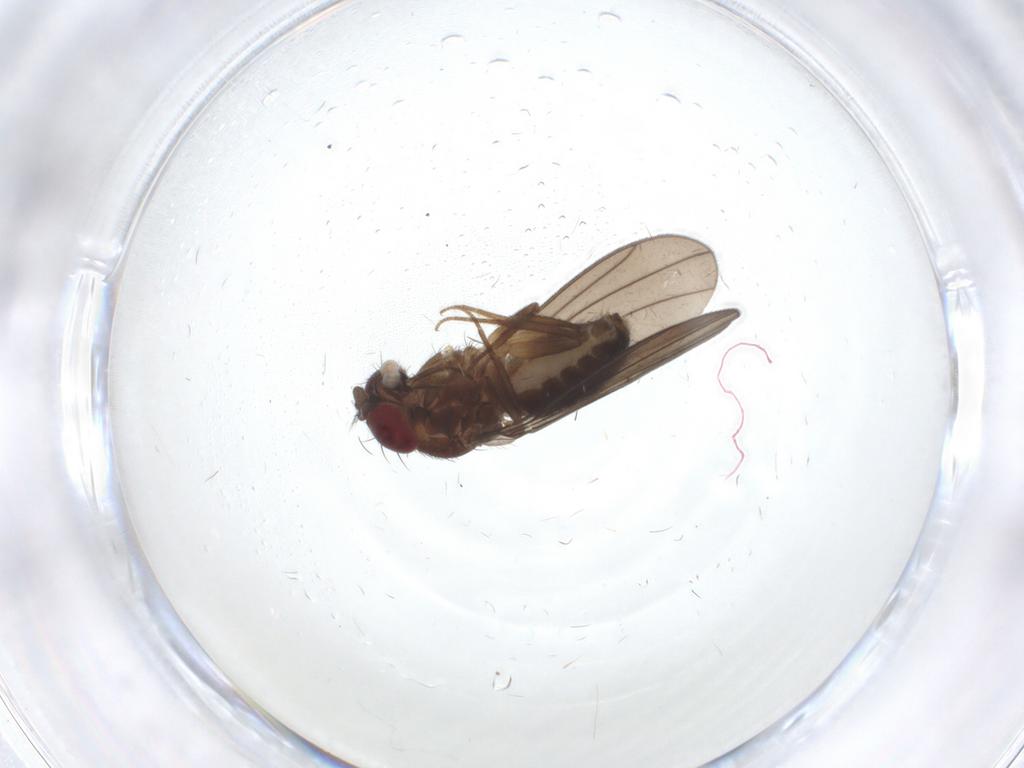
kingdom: Animalia
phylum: Arthropoda
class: Insecta
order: Diptera
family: Drosophilidae
